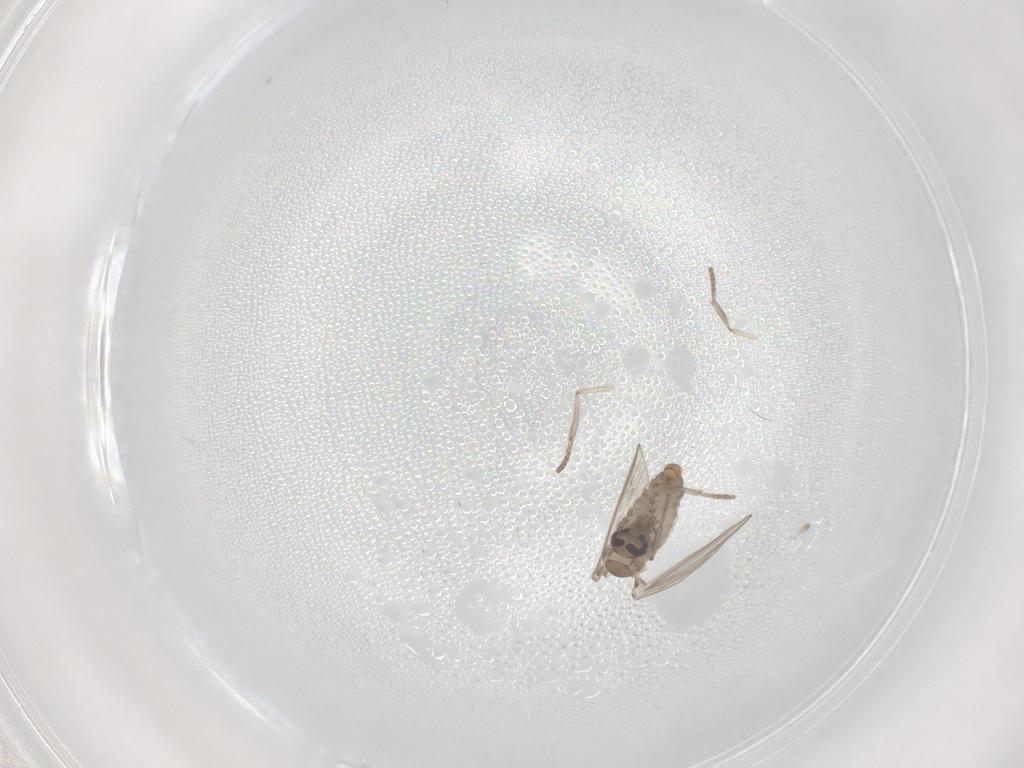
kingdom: Animalia
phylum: Arthropoda
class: Insecta
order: Diptera
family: Psychodidae
